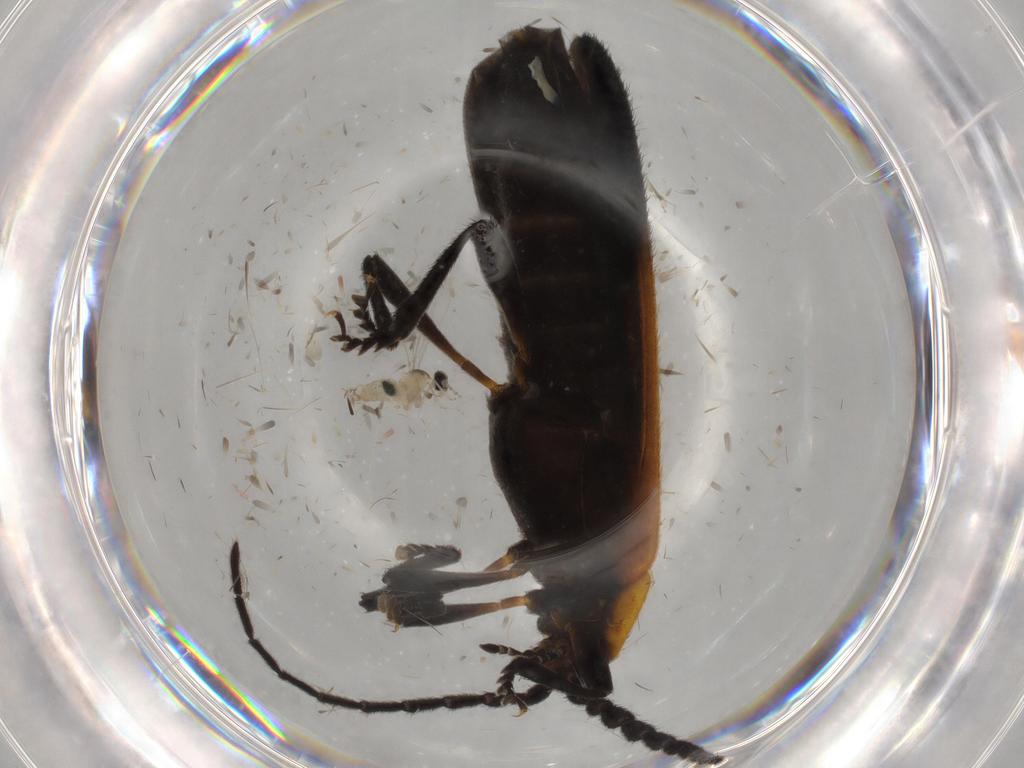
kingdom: Animalia
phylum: Arthropoda
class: Insecta
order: Coleoptera
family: Lycidae
